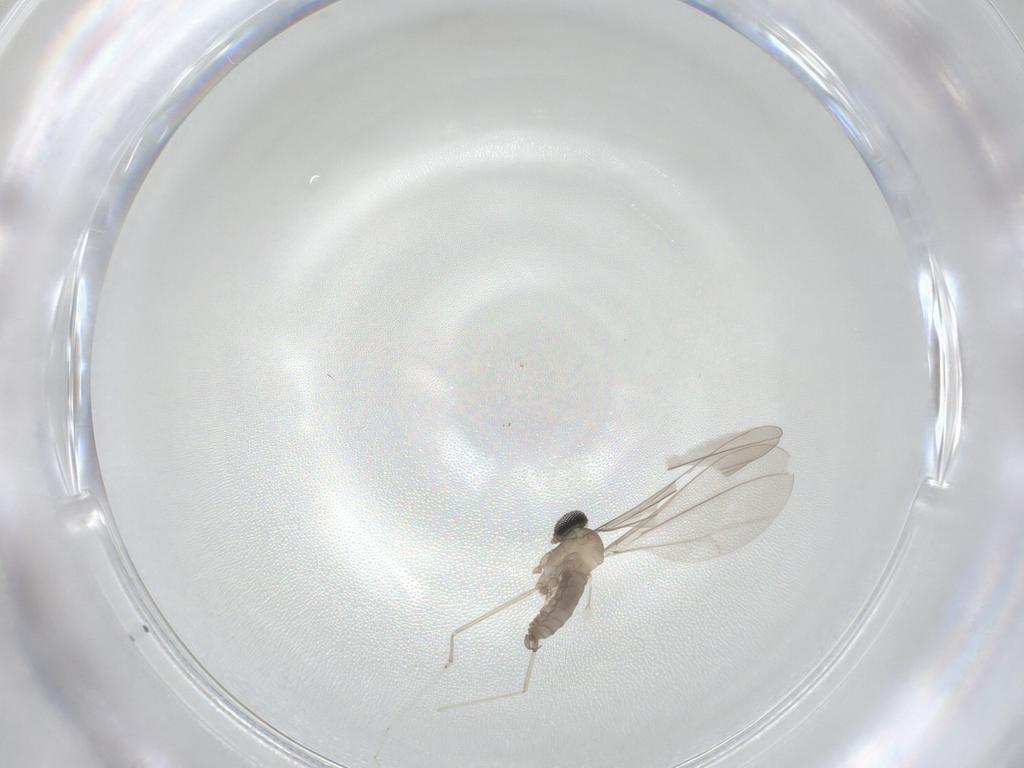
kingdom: Animalia
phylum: Arthropoda
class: Insecta
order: Diptera
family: Cecidomyiidae
